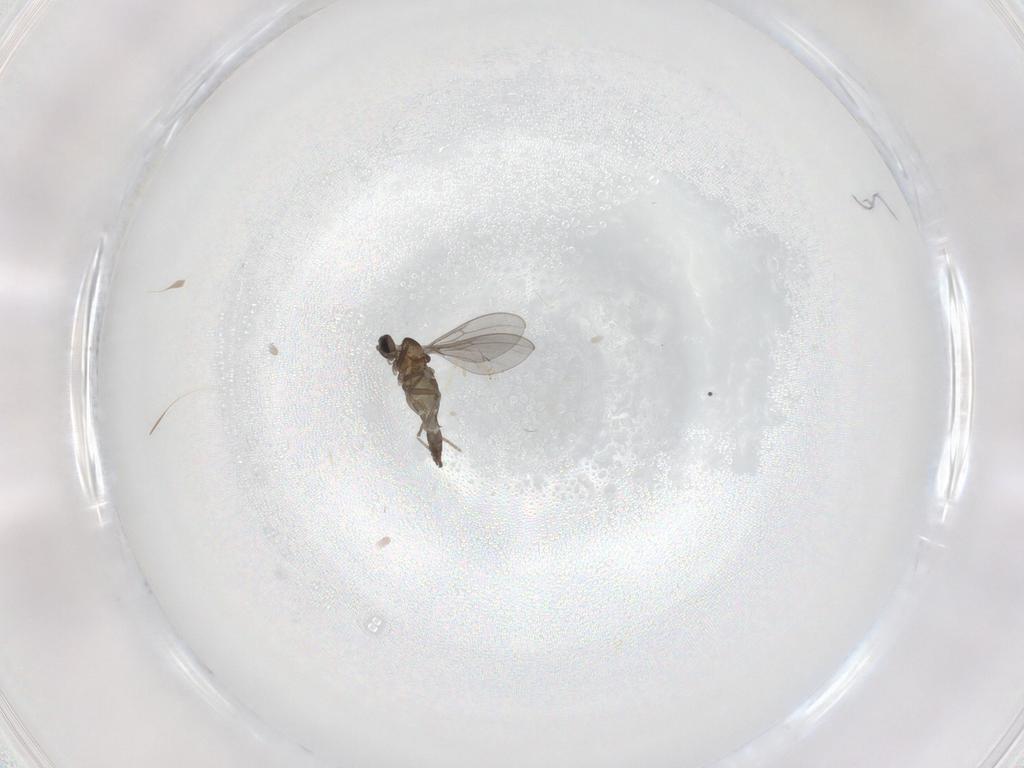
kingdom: Animalia
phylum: Arthropoda
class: Insecta
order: Diptera
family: Cecidomyiidae
